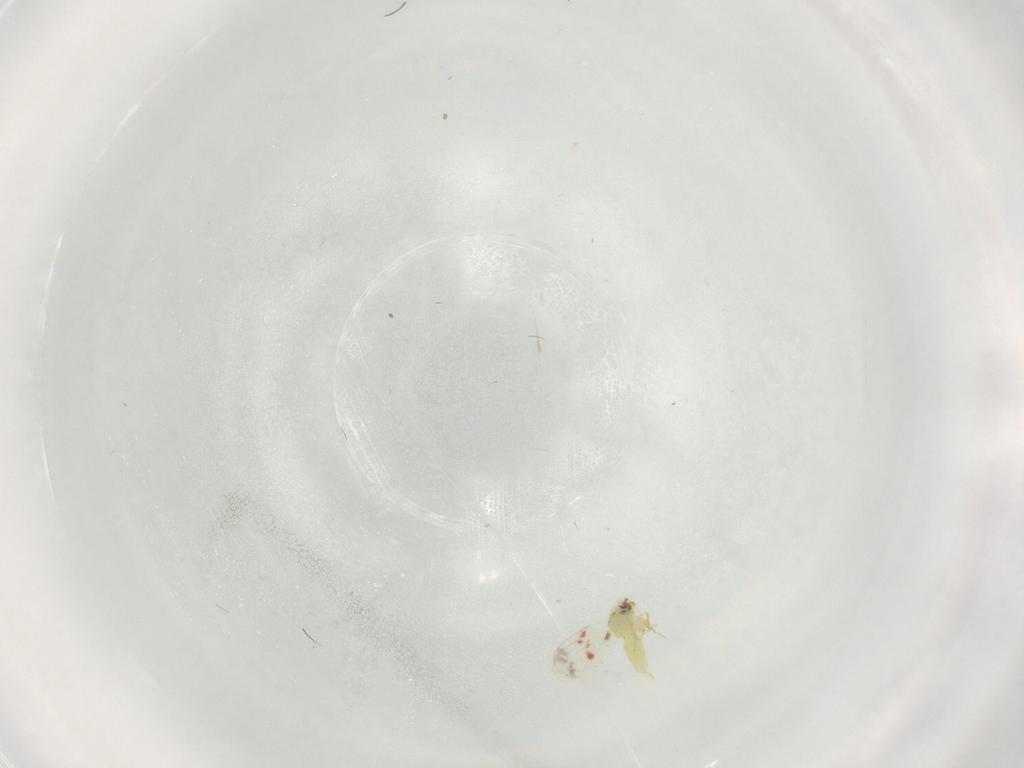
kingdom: Animalia
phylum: Arthropoda
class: Insecta
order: Hemiptera
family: Aleyrodidae
